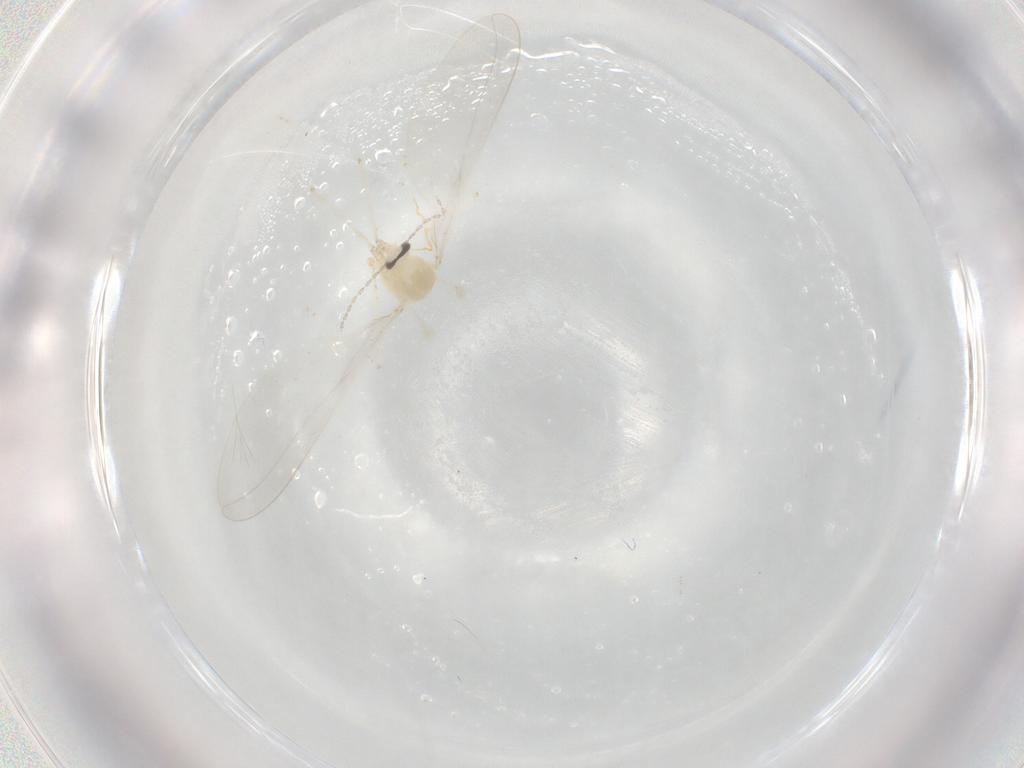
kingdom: Animalia
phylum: Arthropoda
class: Insecta
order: Diptera
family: Cecidomyiidae
